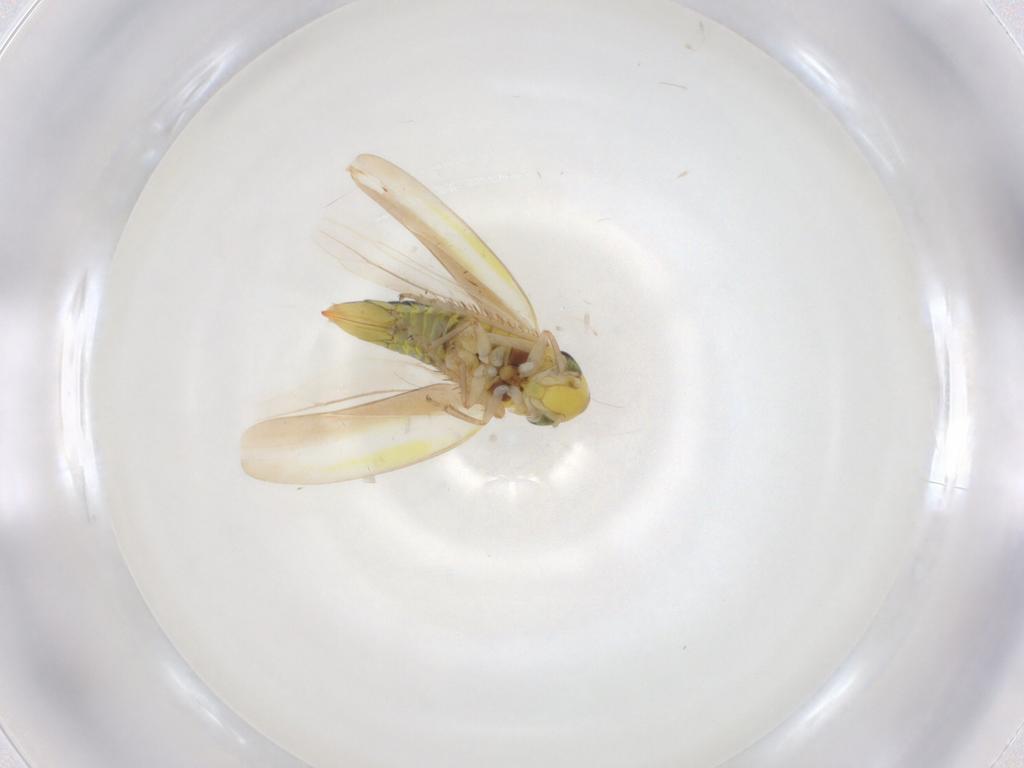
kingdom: Animalia
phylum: Arthropoda
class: Insecta
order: Hemiptera
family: Cicadellidae
